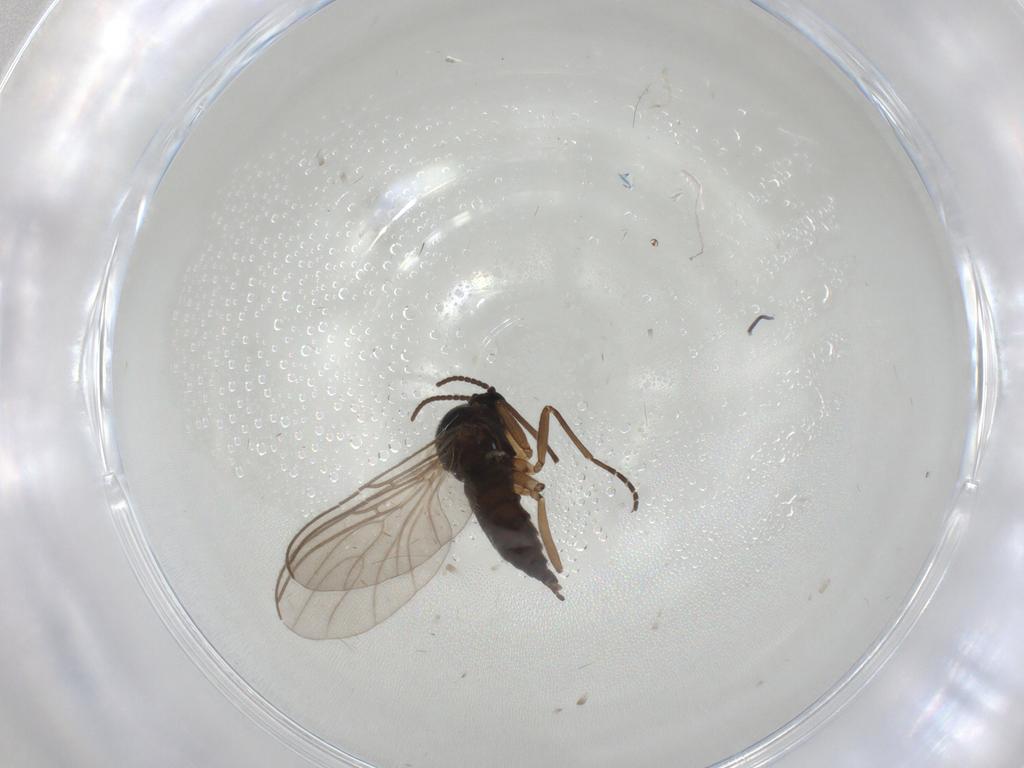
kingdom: Animalia
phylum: Arthropoda
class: Insecta
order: Diptera
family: Sciaridae
